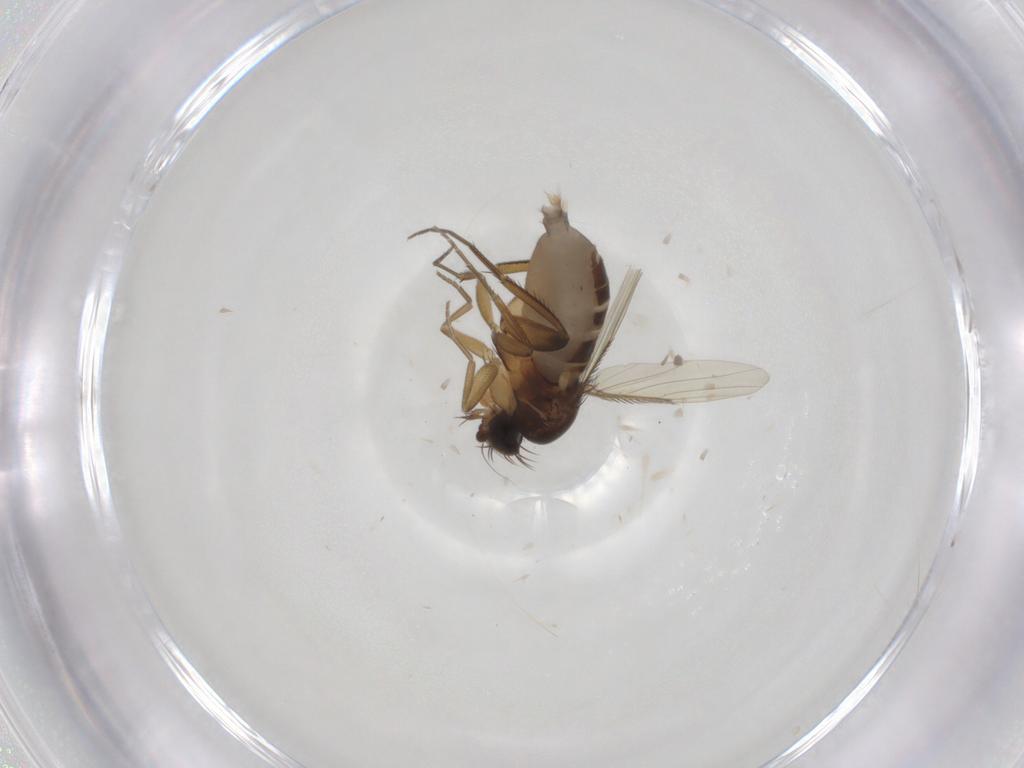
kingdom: Animalia
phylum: Arthropoda
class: Insecta
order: Diptera
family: Phoridae
